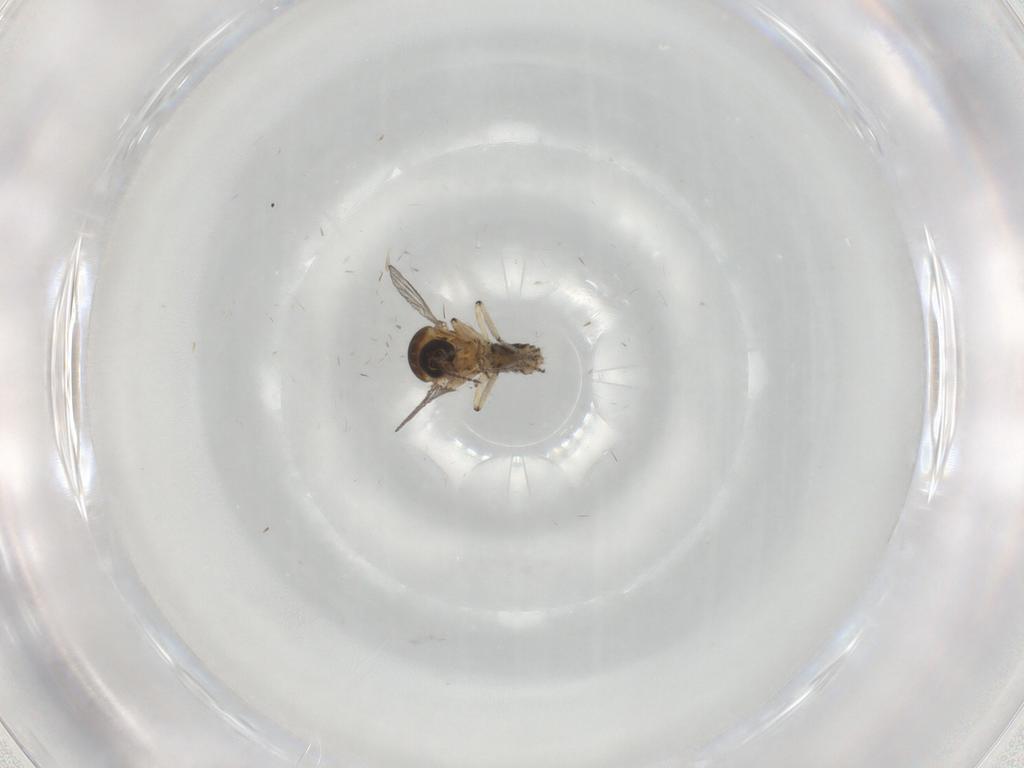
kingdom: Animalia
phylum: Arthropoda
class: Insecta
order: Diptera
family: Ceratopogonidae
